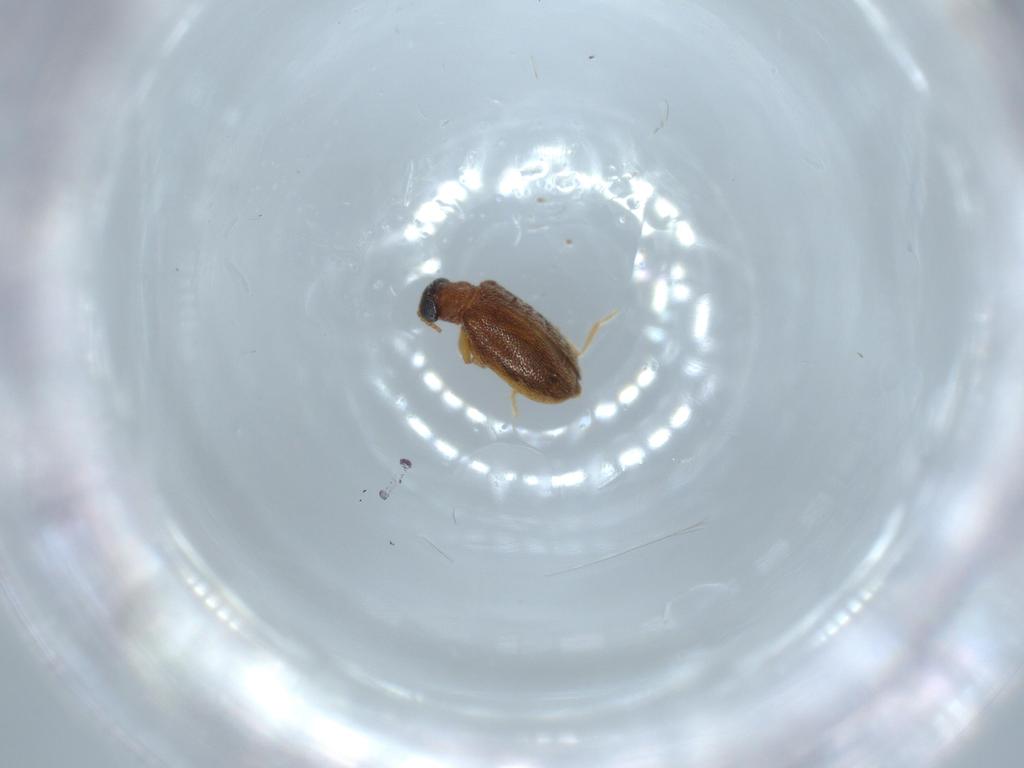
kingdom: Animalia
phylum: Arthropoda
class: Insecta
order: Coleoptera
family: Aderidae
